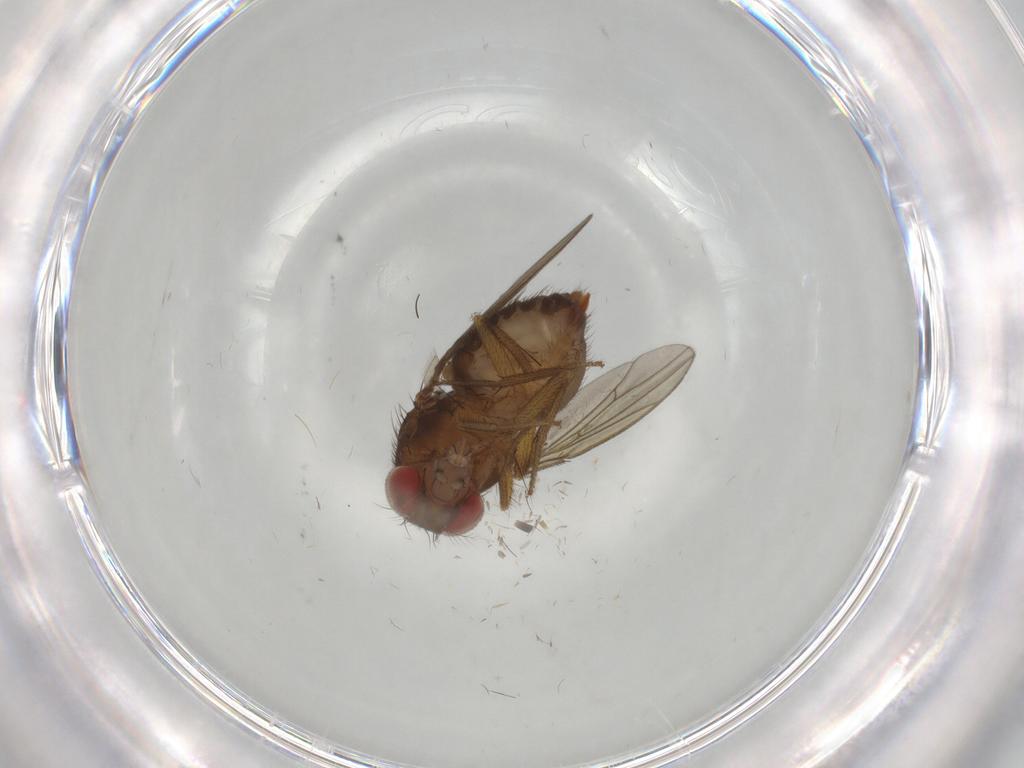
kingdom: Animalia
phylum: Arthropoda
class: Insecta
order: Diptera
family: Drosophilidae
